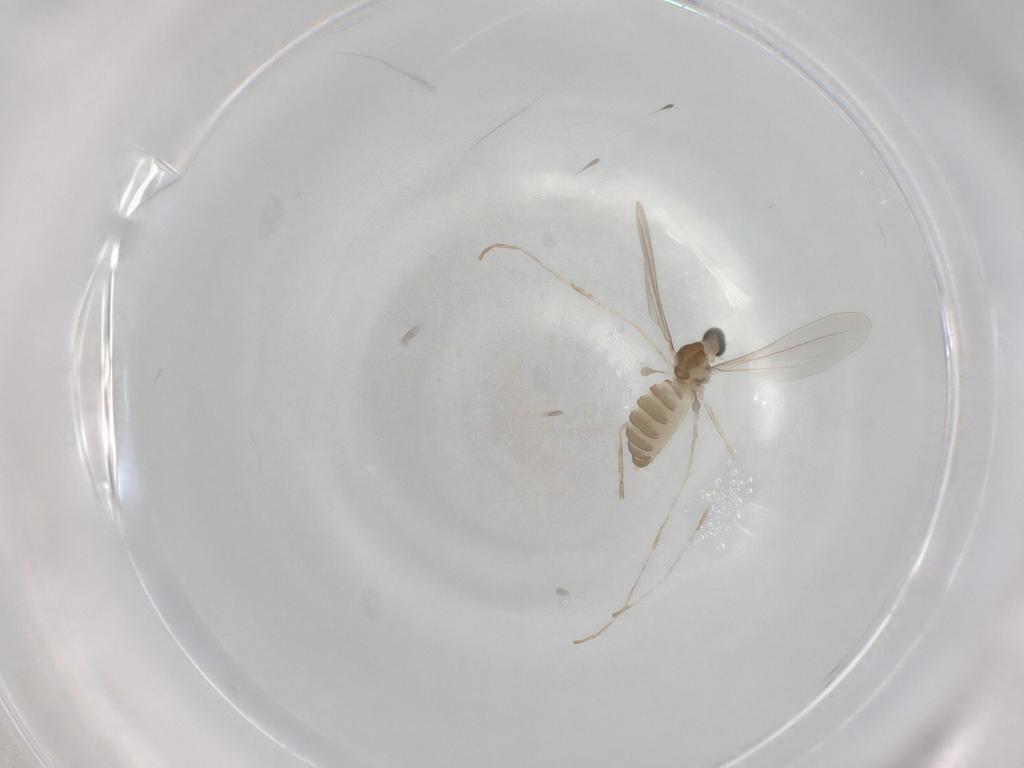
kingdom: Animalia
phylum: Arthropoda
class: Insecta
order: Diptera
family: Cecidomyiidae
